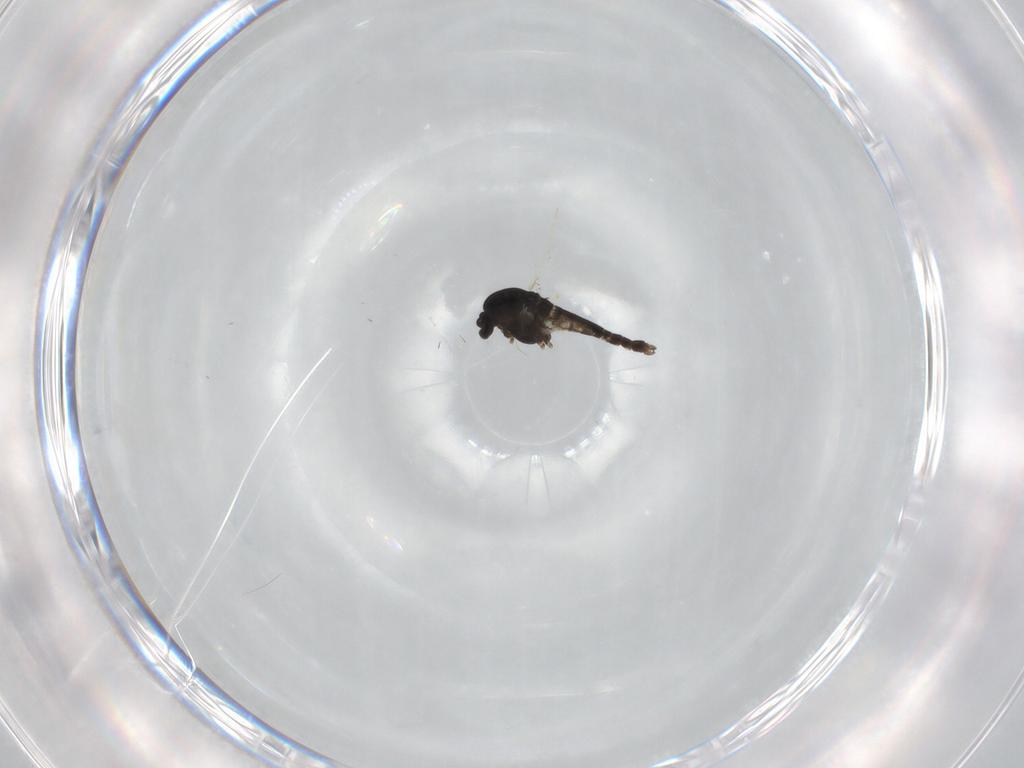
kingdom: Animalia
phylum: Arthropoda
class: Insecta
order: Diptera
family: Chironomidae
